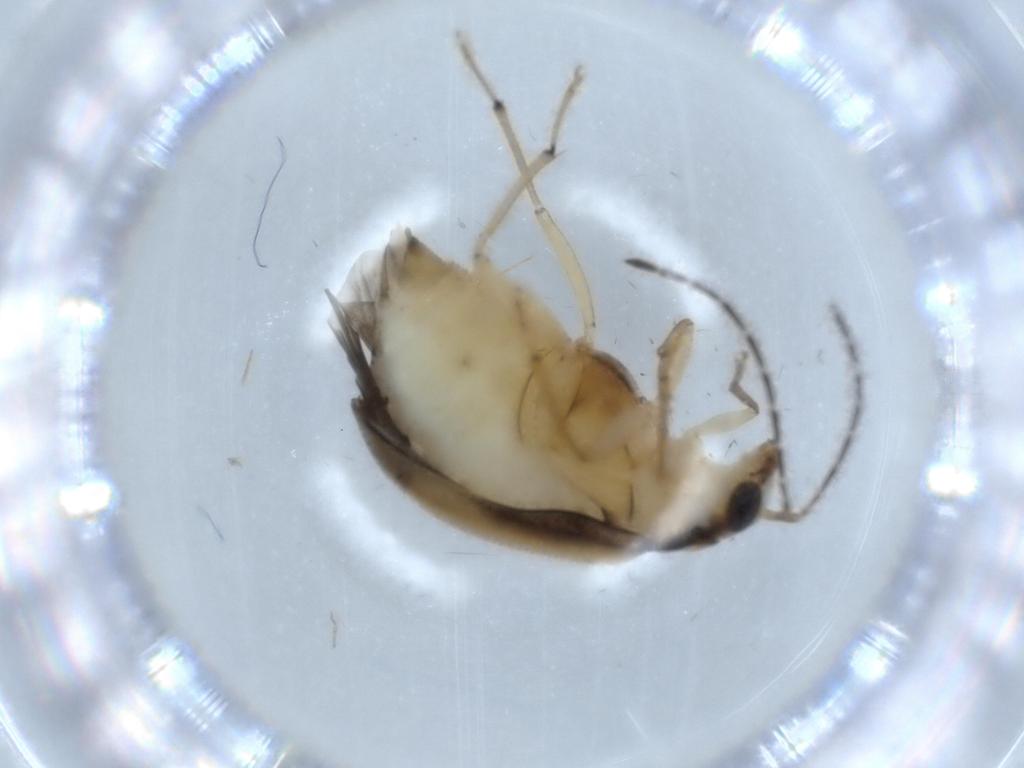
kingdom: Animalia
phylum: Arthropoda
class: Insecta
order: Coleoptera
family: Chrysomelidae
